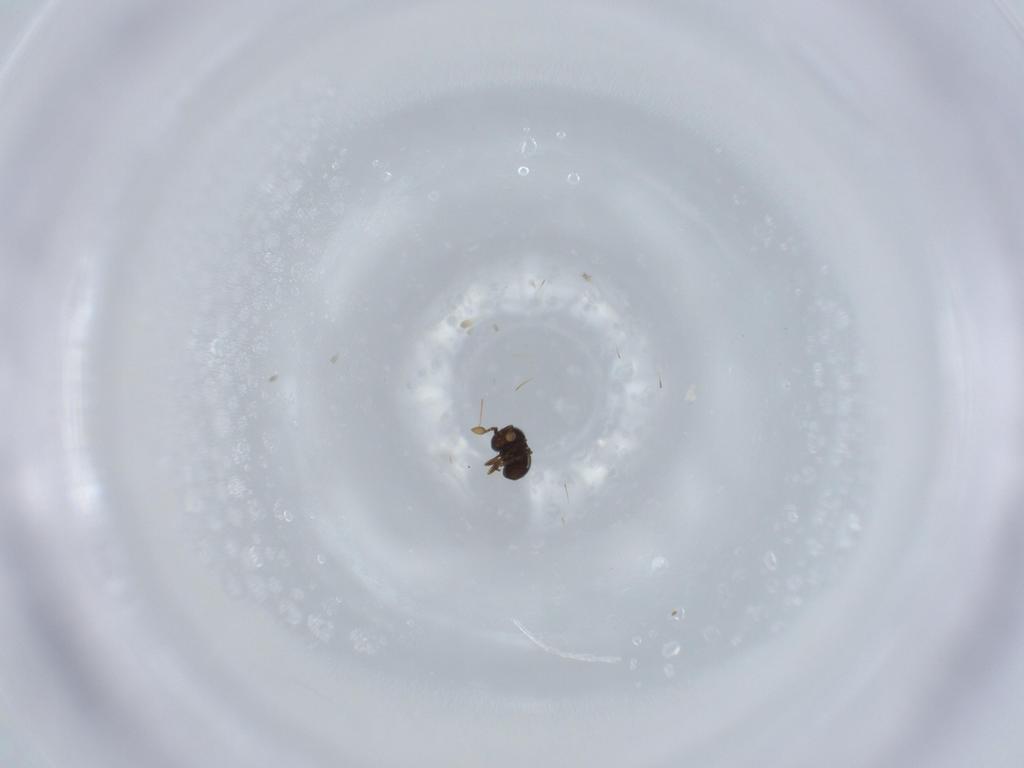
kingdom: Animalia
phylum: Arthropoda
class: Insecta
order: Hymenoptera
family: Scelionidae
